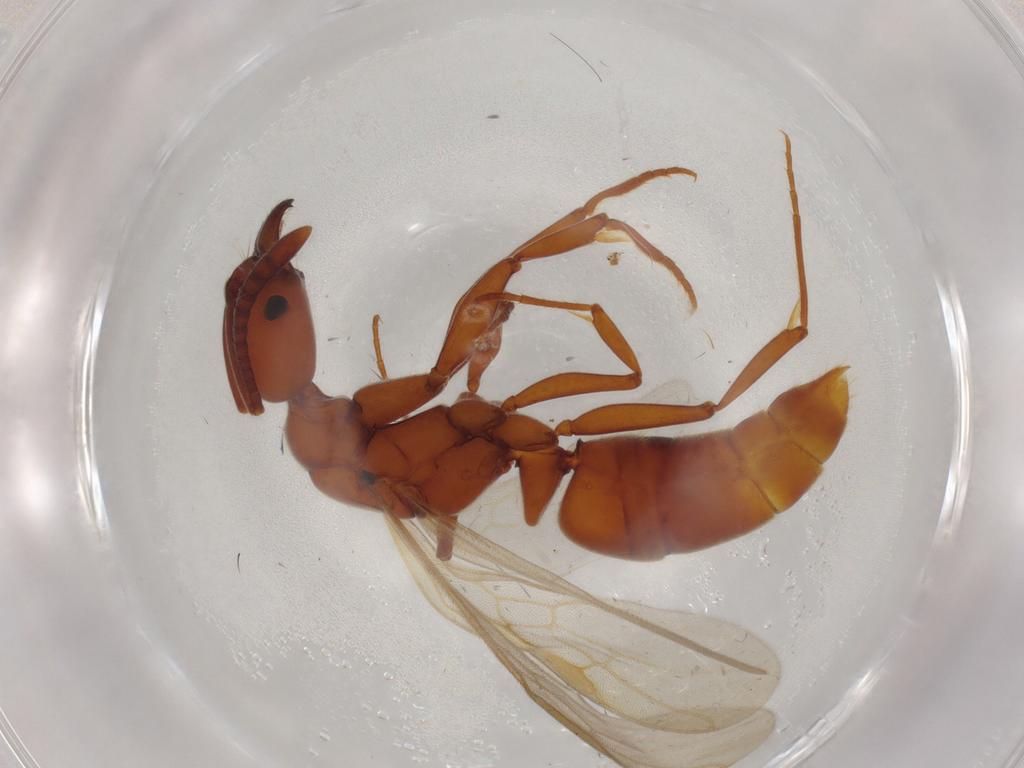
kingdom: Animalia
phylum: Arthropoda
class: Insecta
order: Hymenoptera
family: Formicidae
